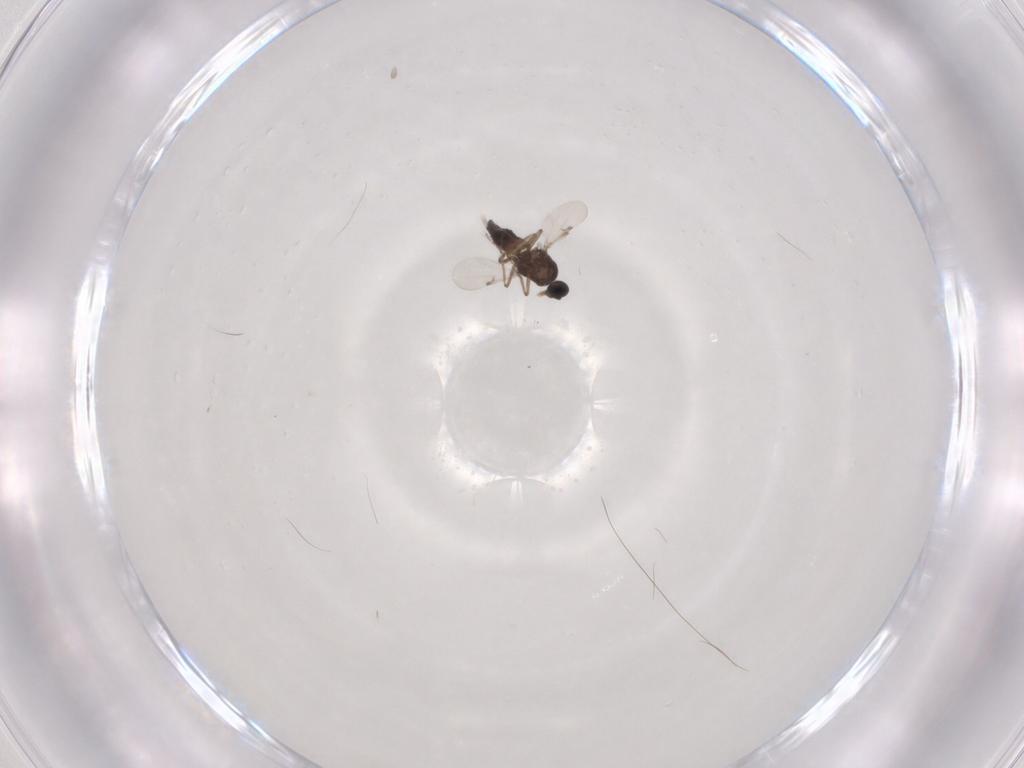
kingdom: Animalia
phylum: Arthropoda
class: Insecta
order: Diptera
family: Ceratopogonidae
